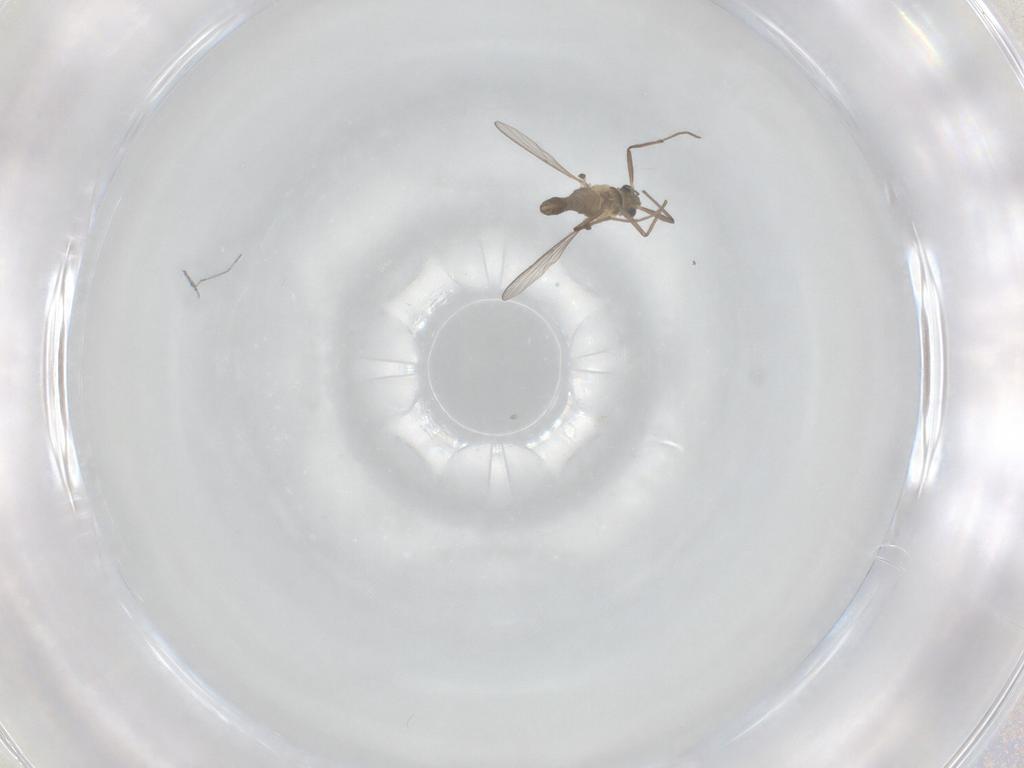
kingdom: Animalia
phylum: Arthropoda
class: Insecta
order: Diptera
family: Chironomidae
